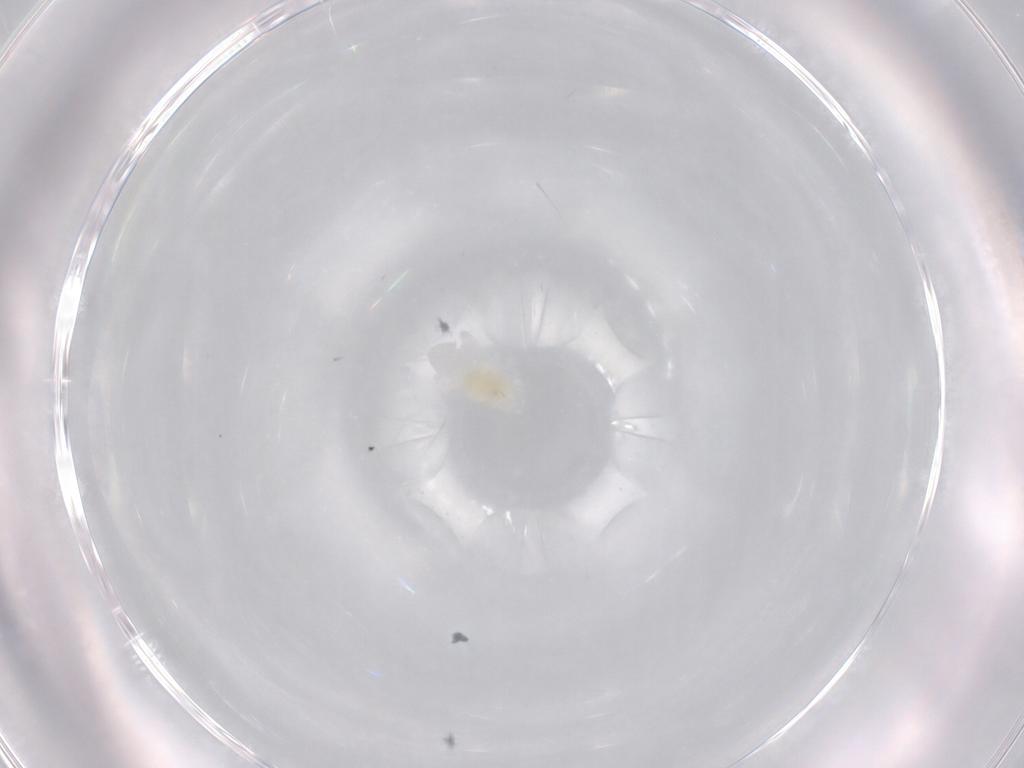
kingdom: Animalia
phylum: Arthropoda
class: Arachnida
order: Trombidiformes
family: Eupodidae
